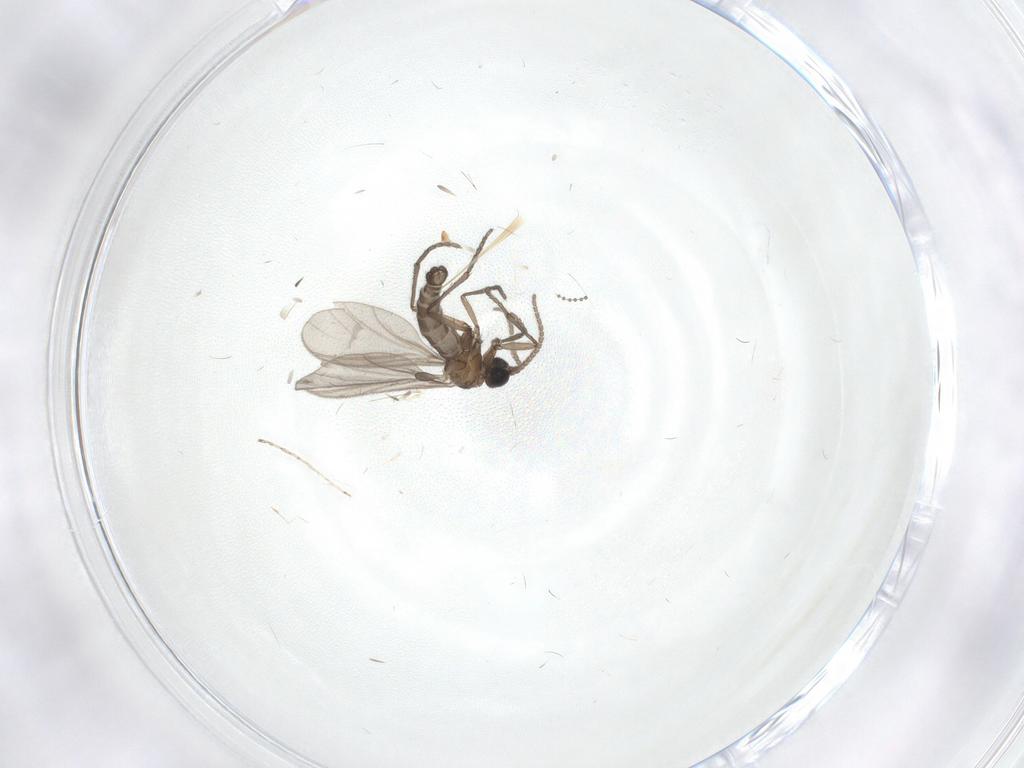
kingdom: Animalia
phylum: Arthropoda
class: Insecta
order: Diptera
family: Sciaridae
